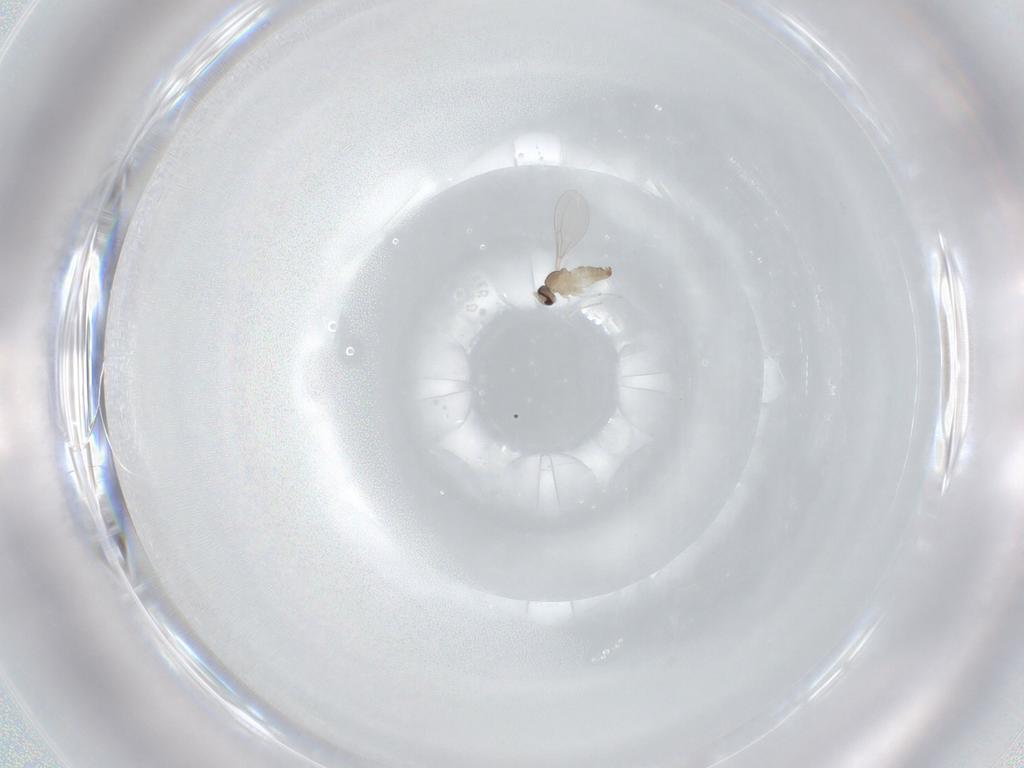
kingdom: Animalia
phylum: Arthropoda
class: Insecta
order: Diptera
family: Cecidomyiidae
